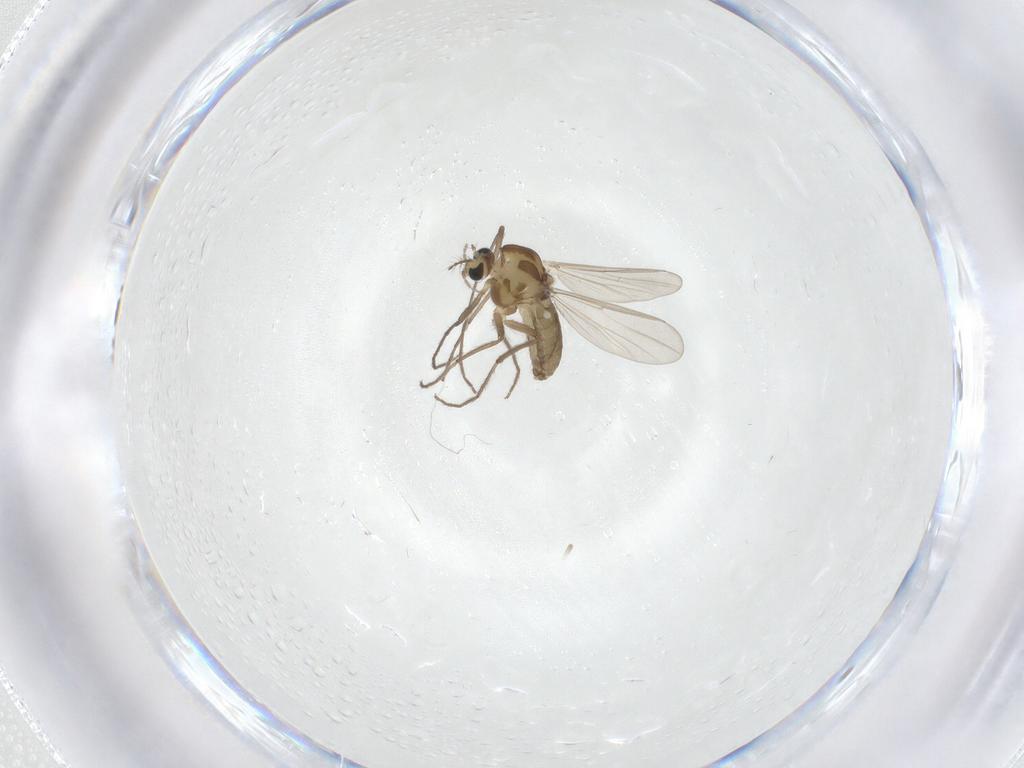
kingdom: Animalia
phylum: Arthropoda
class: Insecta
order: Diptera
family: Chironomidae
